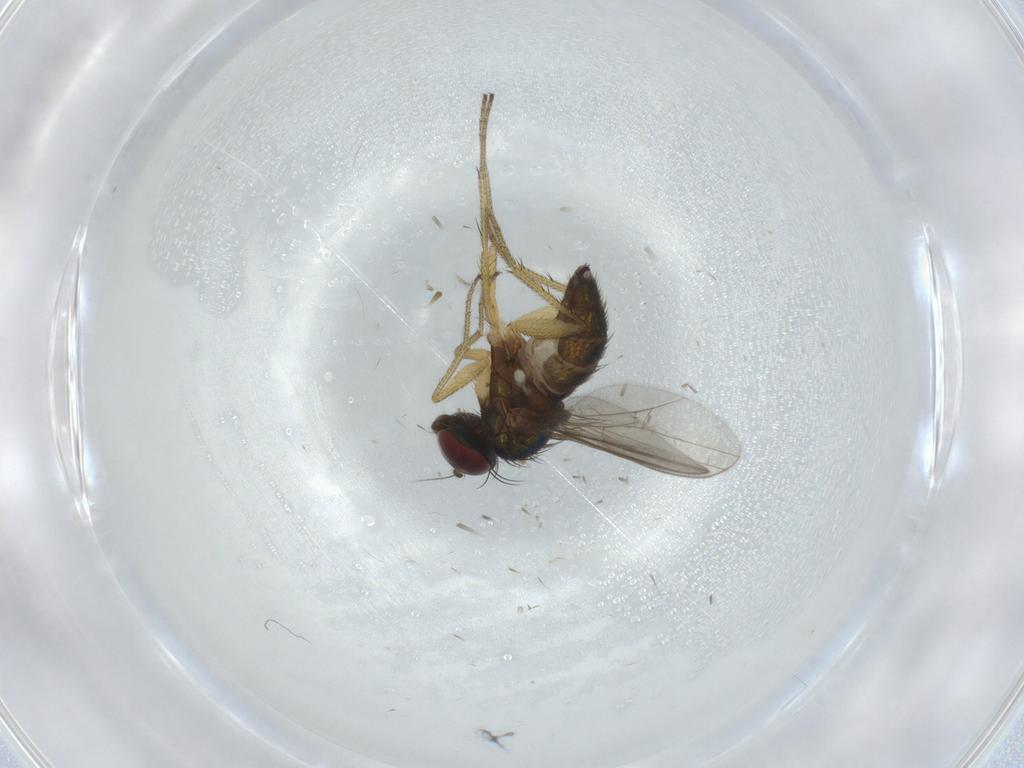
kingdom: Animalia
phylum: Arthropoda
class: Insecta
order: Diptera
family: Dolichopodidae
